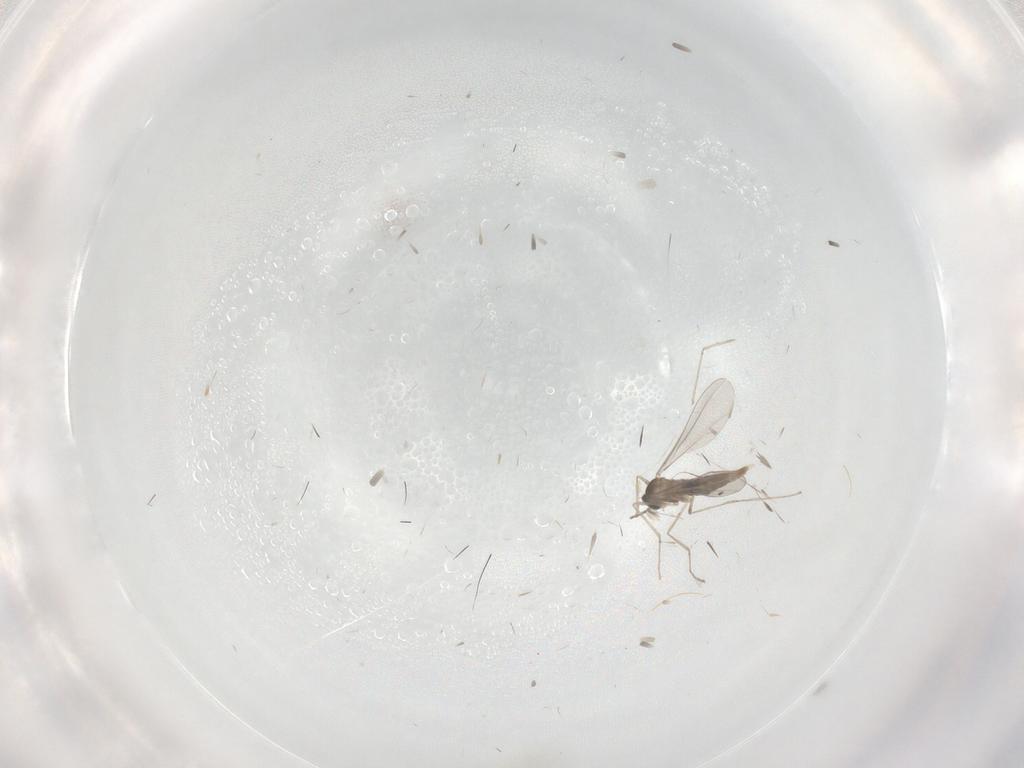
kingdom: Animalia
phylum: Arthropoda
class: Insecta
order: Diptera
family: Cecidomyiidae
